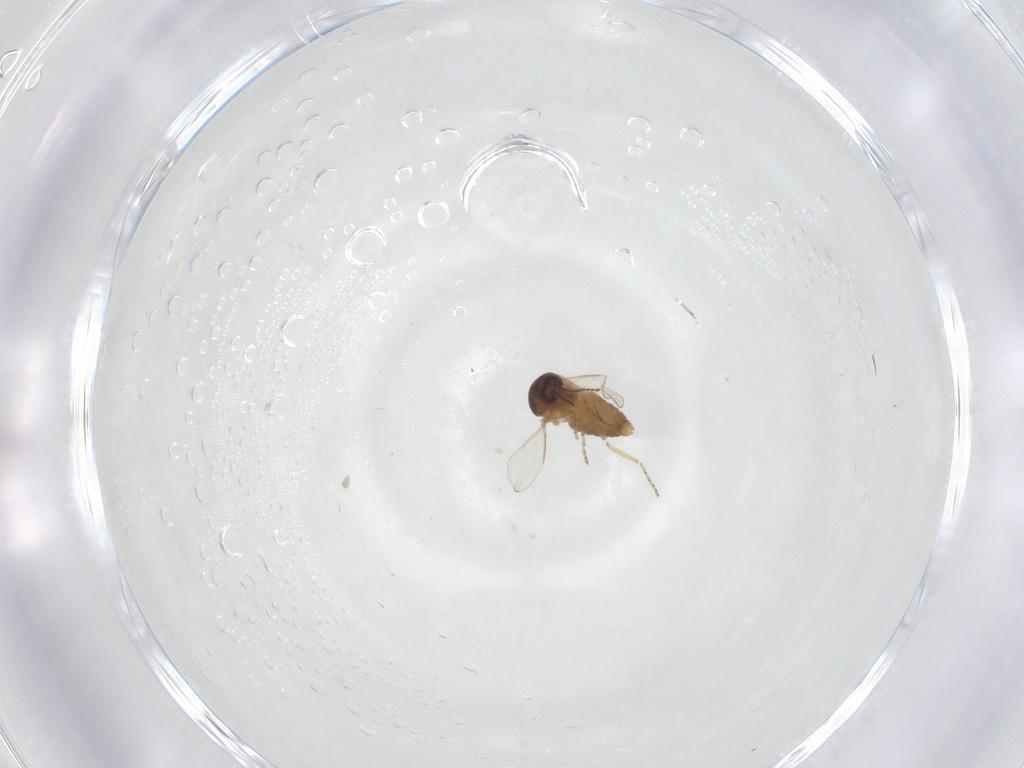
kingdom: Animalia
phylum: Arthropoda
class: Insecta
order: Diptera
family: Ceratopogonidae
